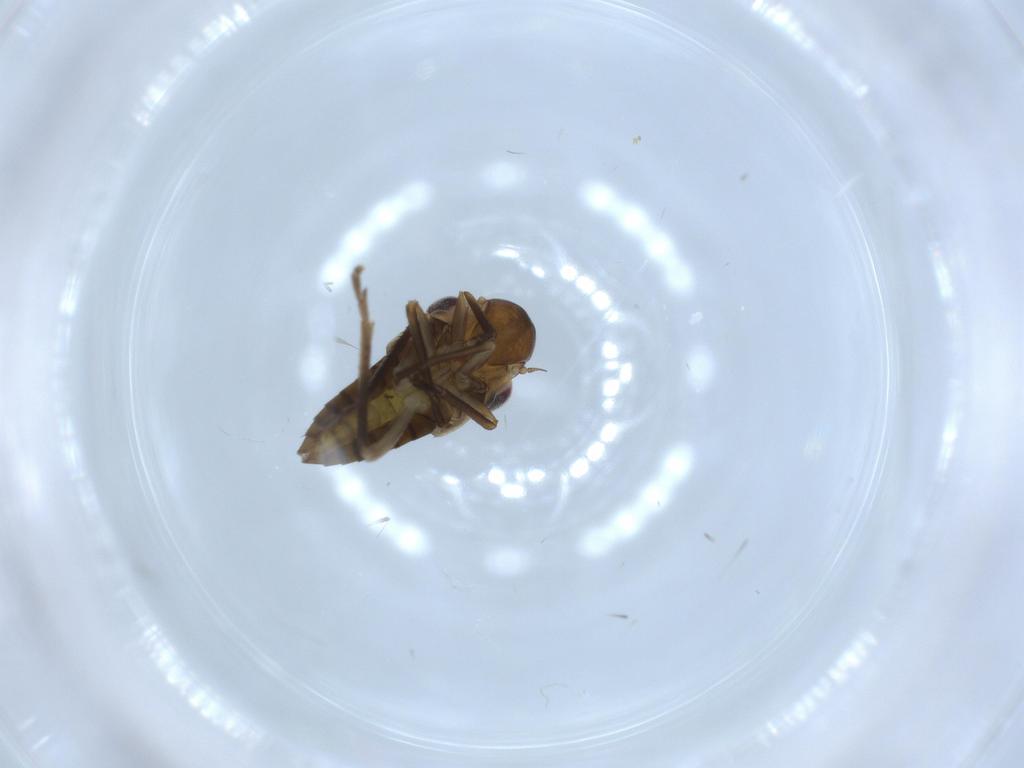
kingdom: Animalia
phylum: Arthropoda
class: Insecta
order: Hemiptera
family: Cicadellidae
